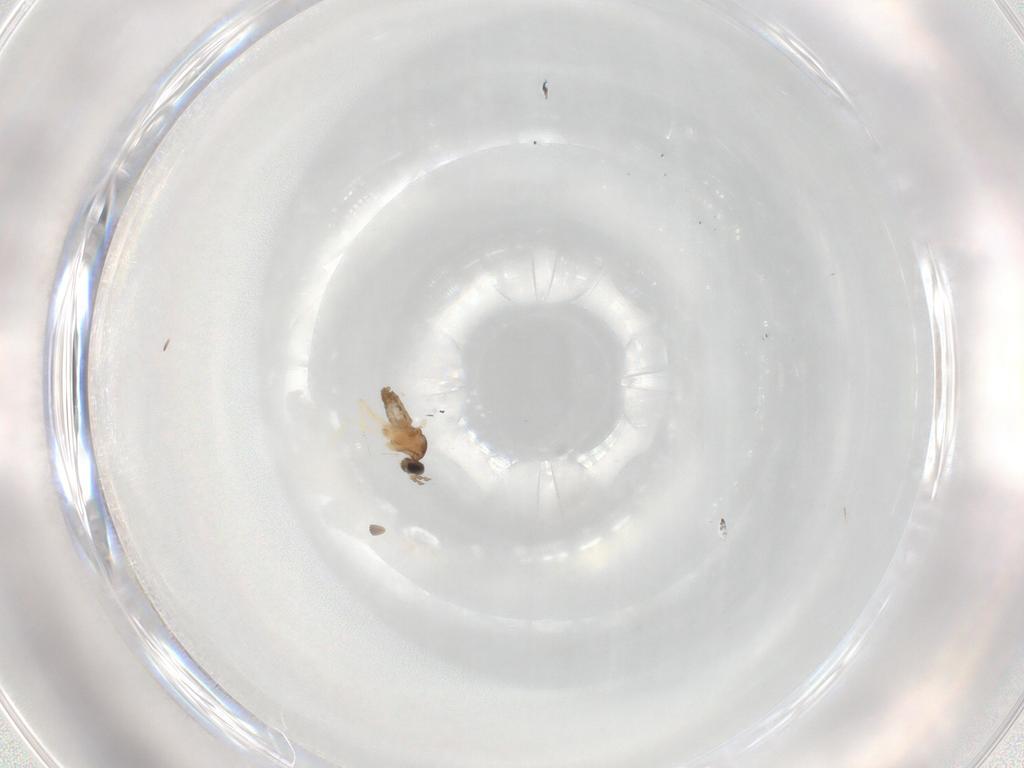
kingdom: Animalia
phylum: Arthropoda
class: Insecta
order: Diptera
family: Cecidomyiidae
